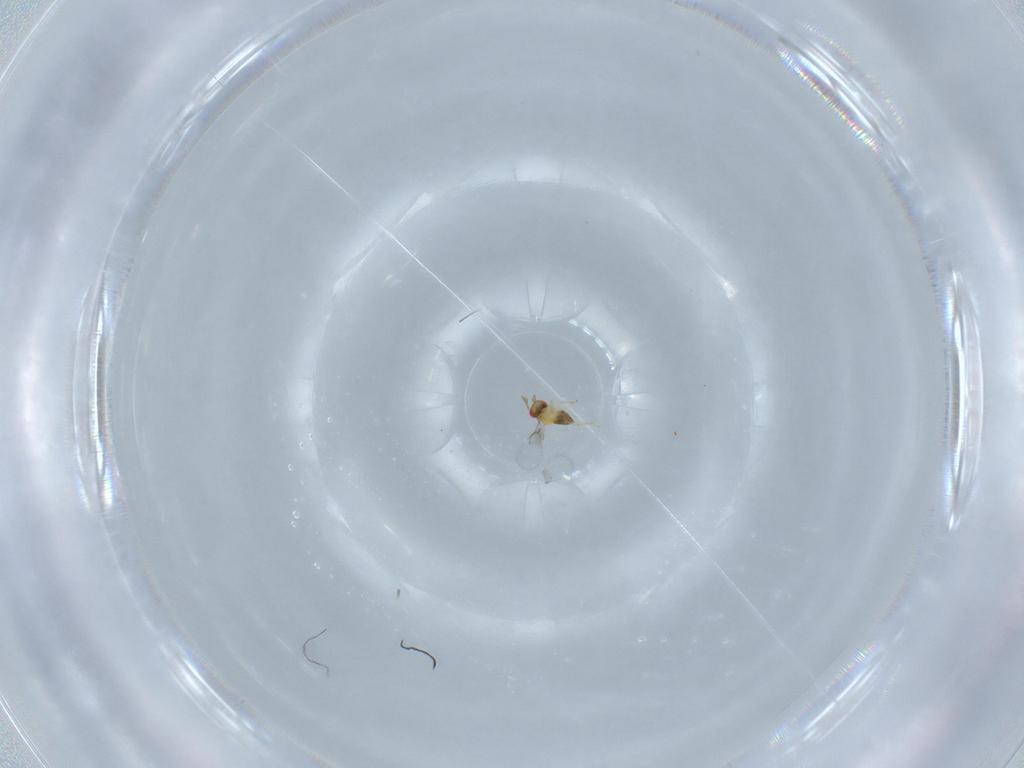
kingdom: Animalia
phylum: Arthropoda
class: Insecta
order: Hymenoptera
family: Trichogrammatidae
